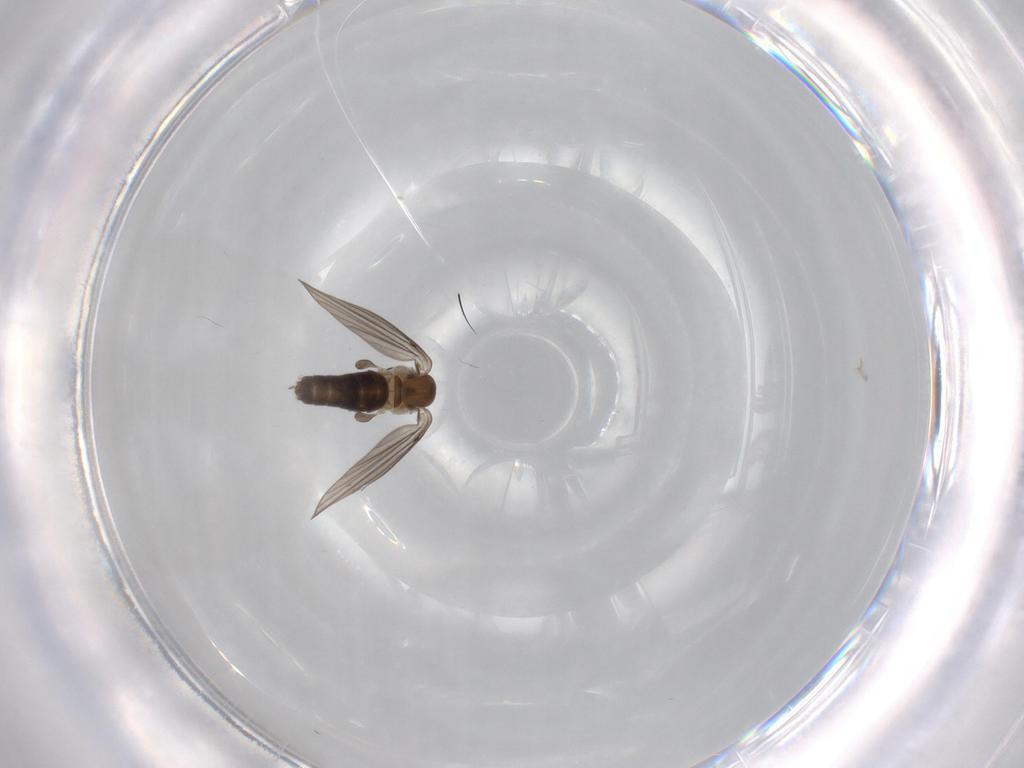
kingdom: Animalia
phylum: Arthropoda
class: Insecta
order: Diptera
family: Psychodidae
